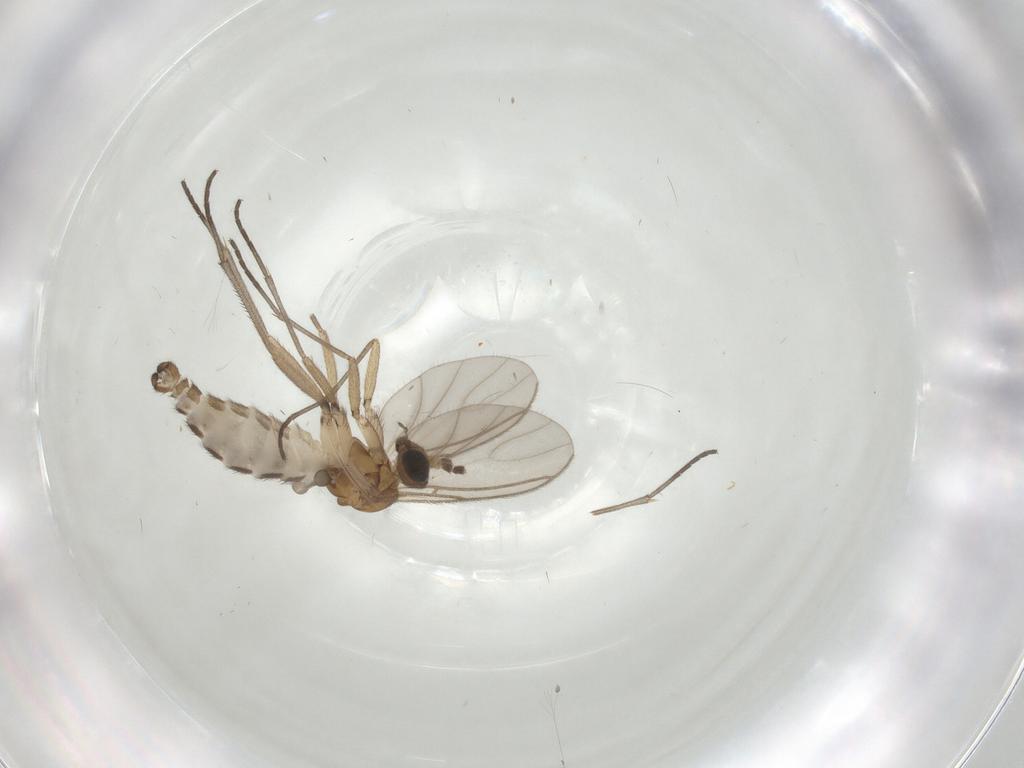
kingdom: Animalia
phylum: Arthropoda
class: Insecta
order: Diptera
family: Sciaridae
